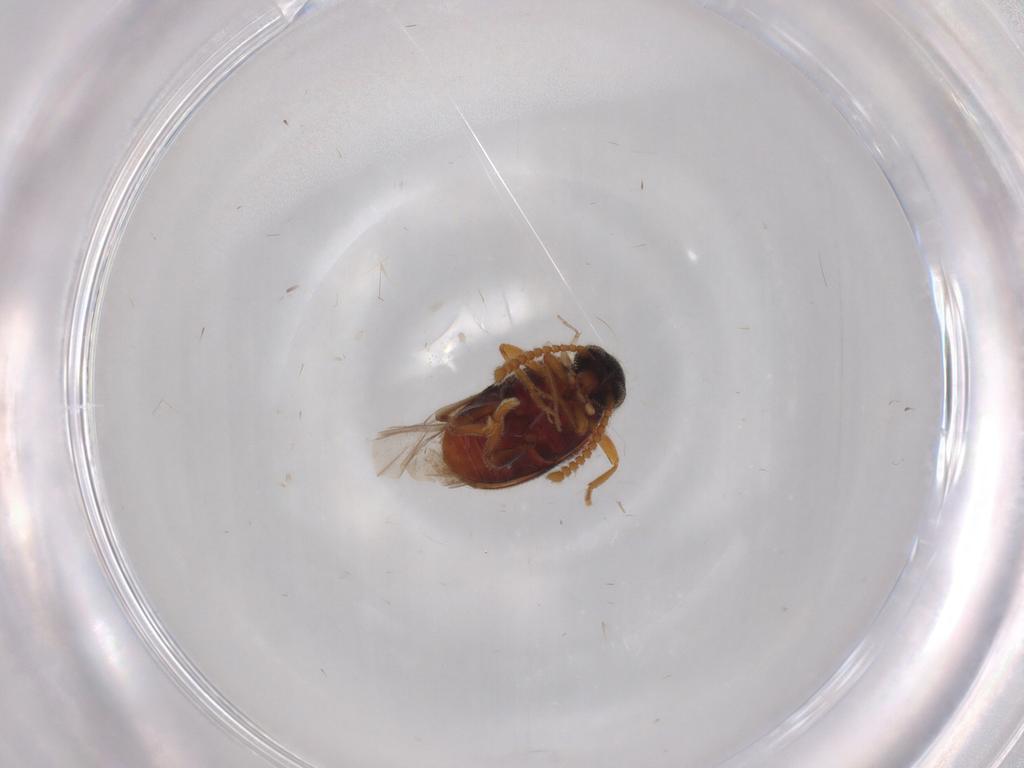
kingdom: Animalia
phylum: Arthropoda
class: Insecta
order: Coleoptera
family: Aderidae
